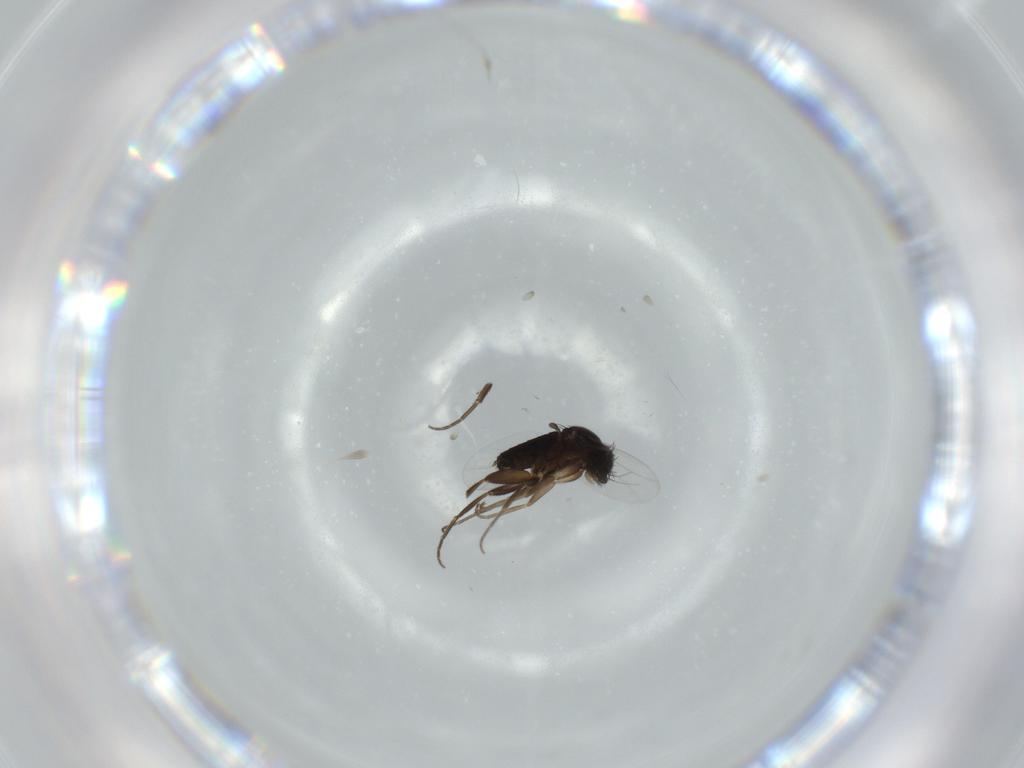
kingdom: Animalia
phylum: Arthropoda
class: Insecta
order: Diptera
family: Phoridae
